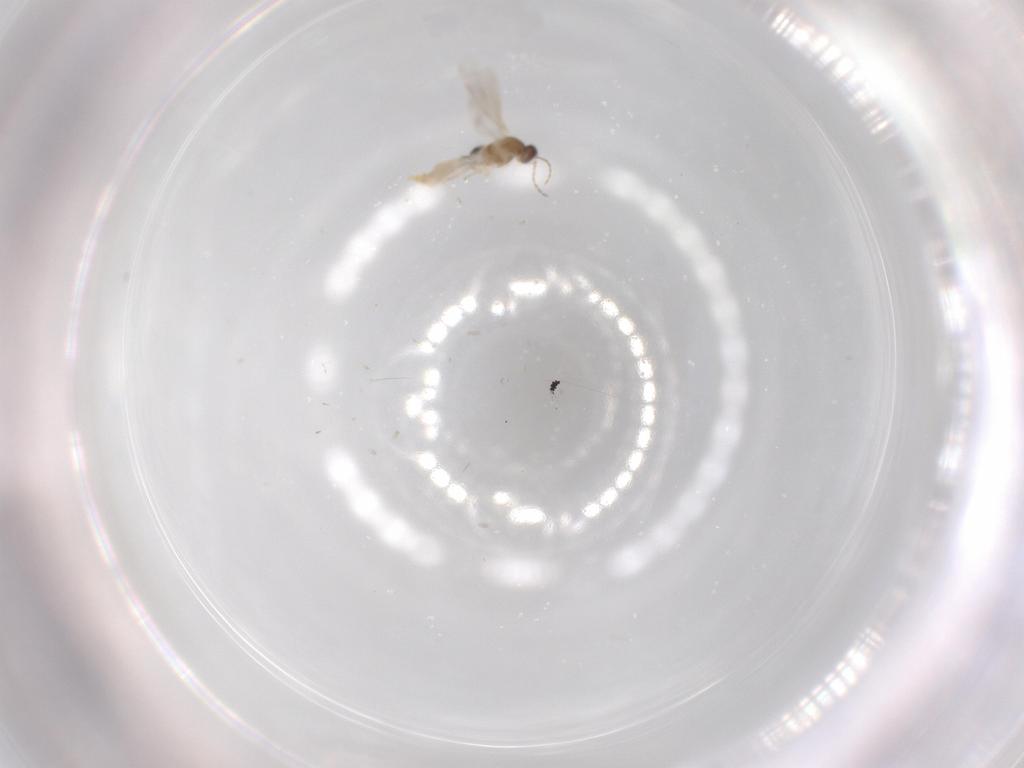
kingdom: Animalia
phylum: Arthropoda
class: Insecta
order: Diptera
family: Cecidomyiidae
